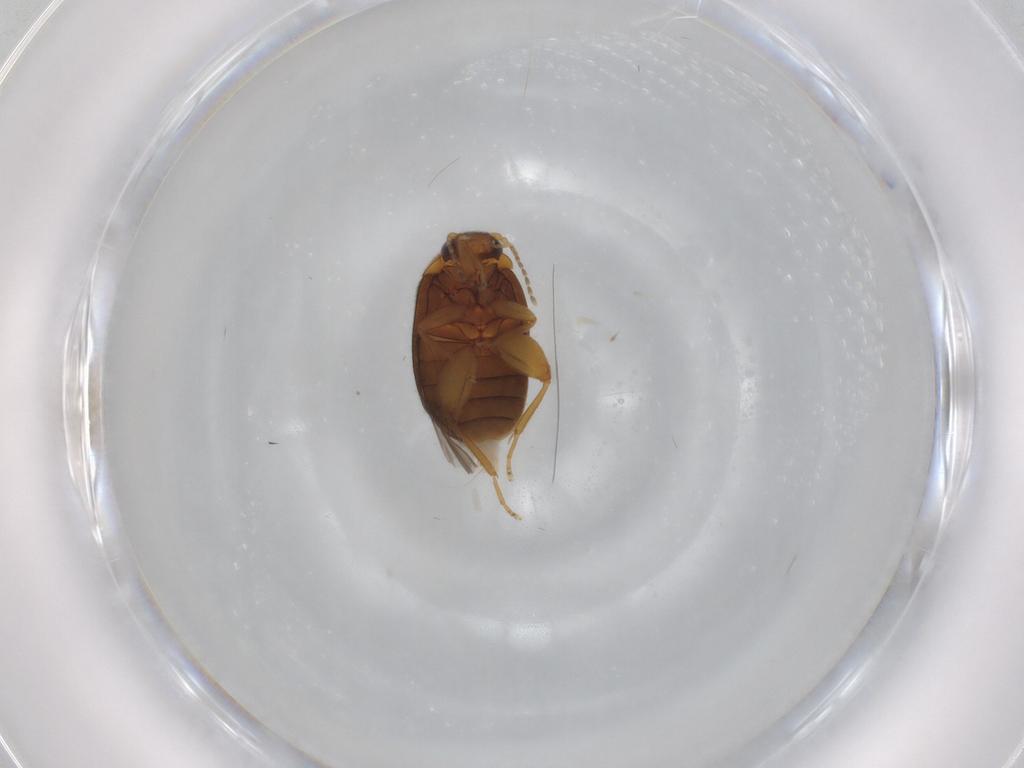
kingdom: Animalia
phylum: Arthropoda
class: Insecta
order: Coleoptera
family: Scirtidae
